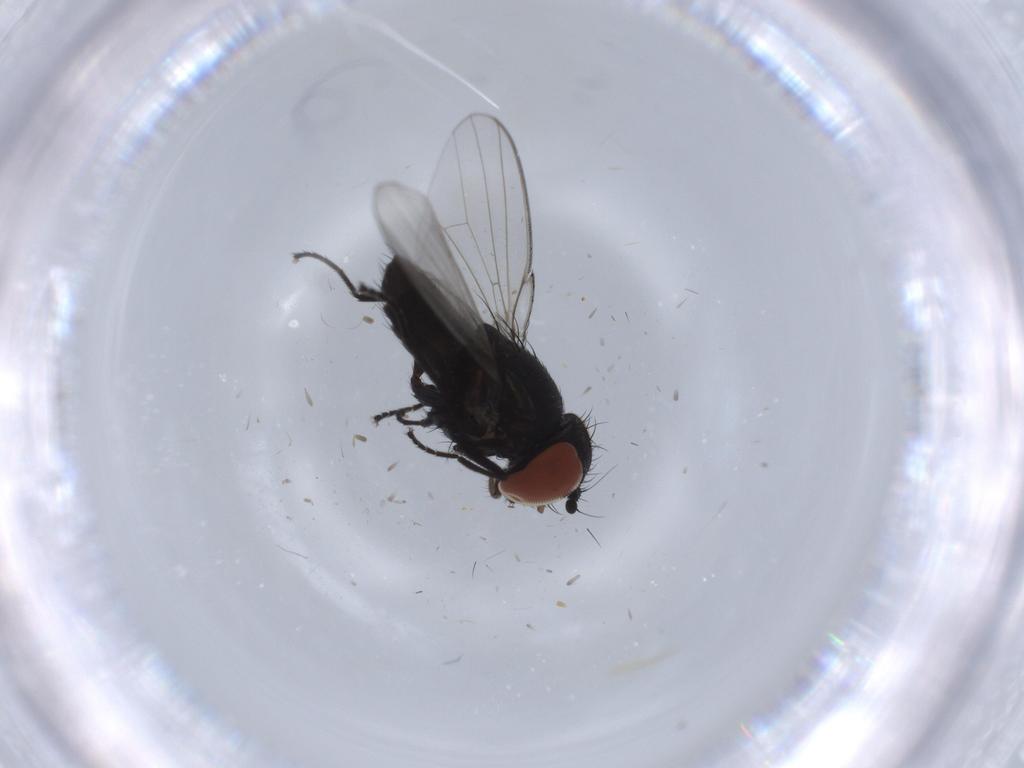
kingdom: Animalia
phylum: Arthropoda
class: Insecta
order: Diptera
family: Milichiidae
